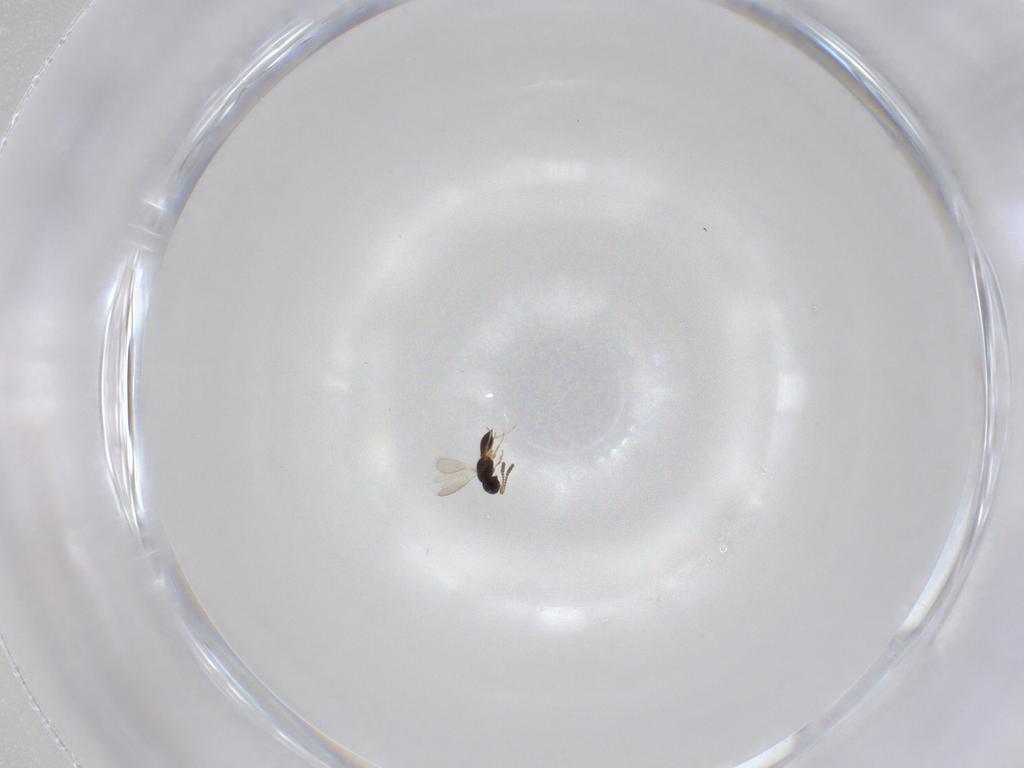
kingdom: Animalia
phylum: Arthropoda
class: Insecta
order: Hymenoptera
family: Scelionidae
